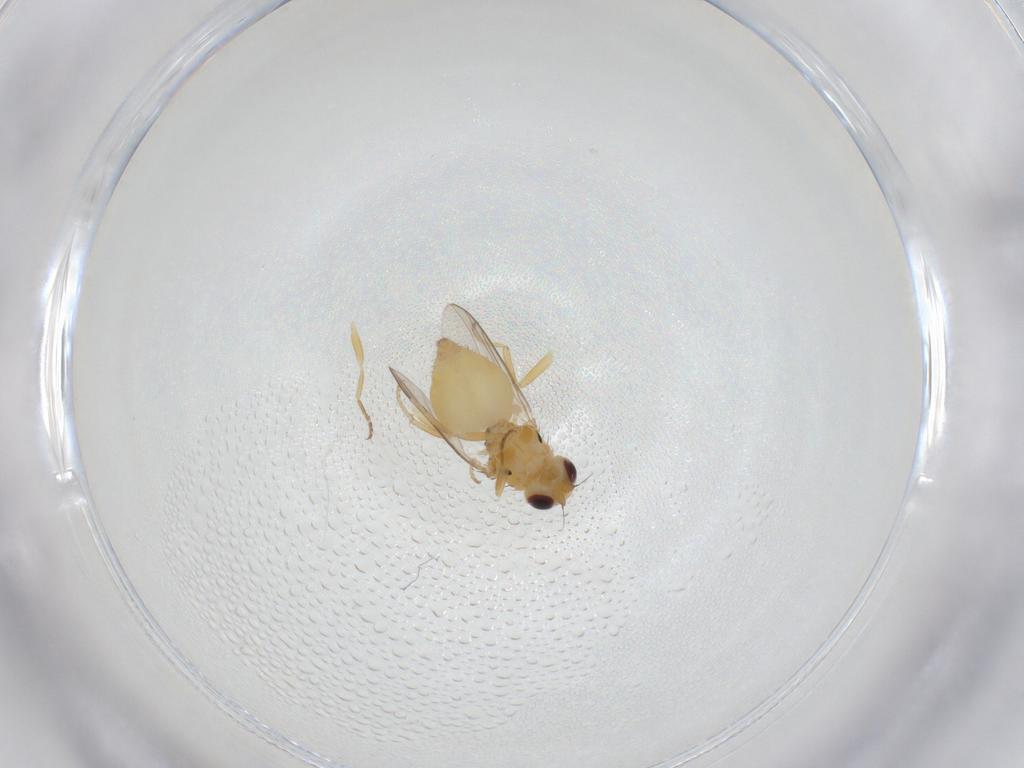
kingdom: Animalia
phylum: Arthropoda
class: Insecta
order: Diptera
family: Chloropidae
